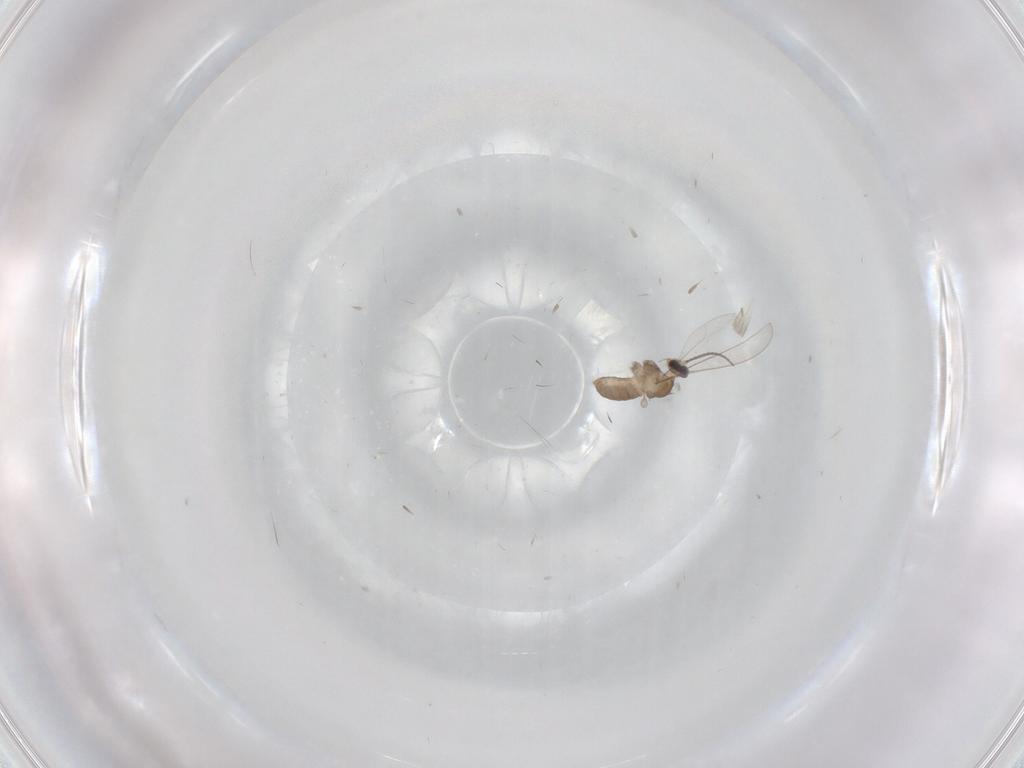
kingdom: Animalia
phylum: Arthropoda
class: Insecta
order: Diptera
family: Cecidomyiidae
